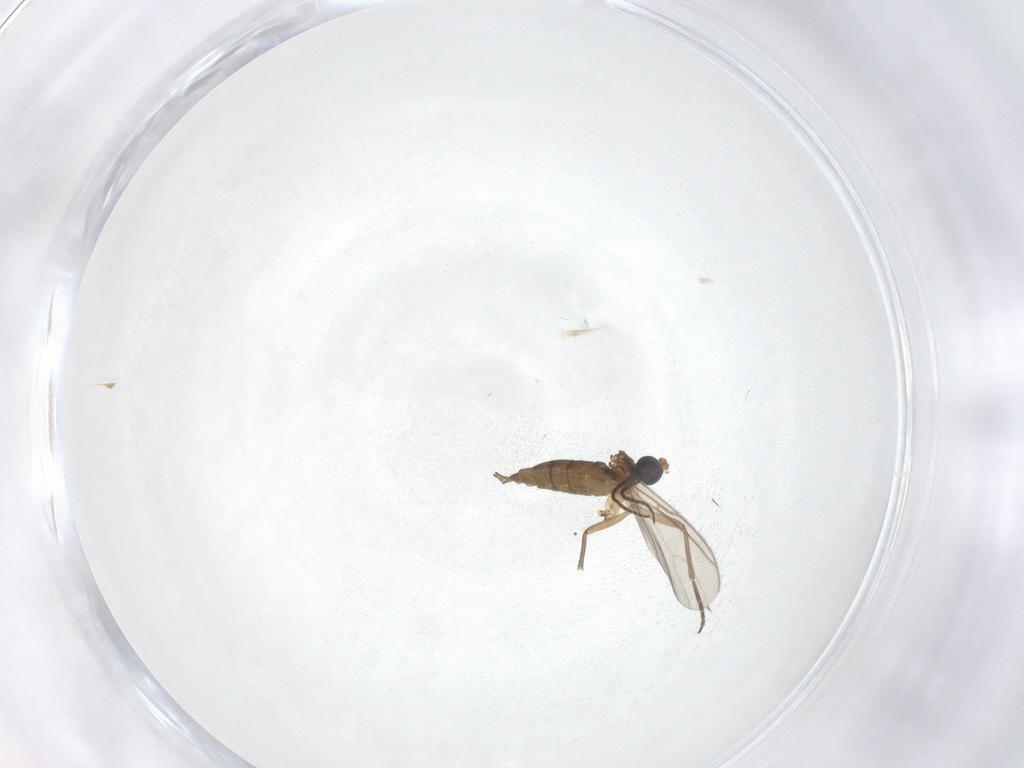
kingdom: Animalia
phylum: Arthropoda
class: Insecta
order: Diptera
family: Sciaridae
